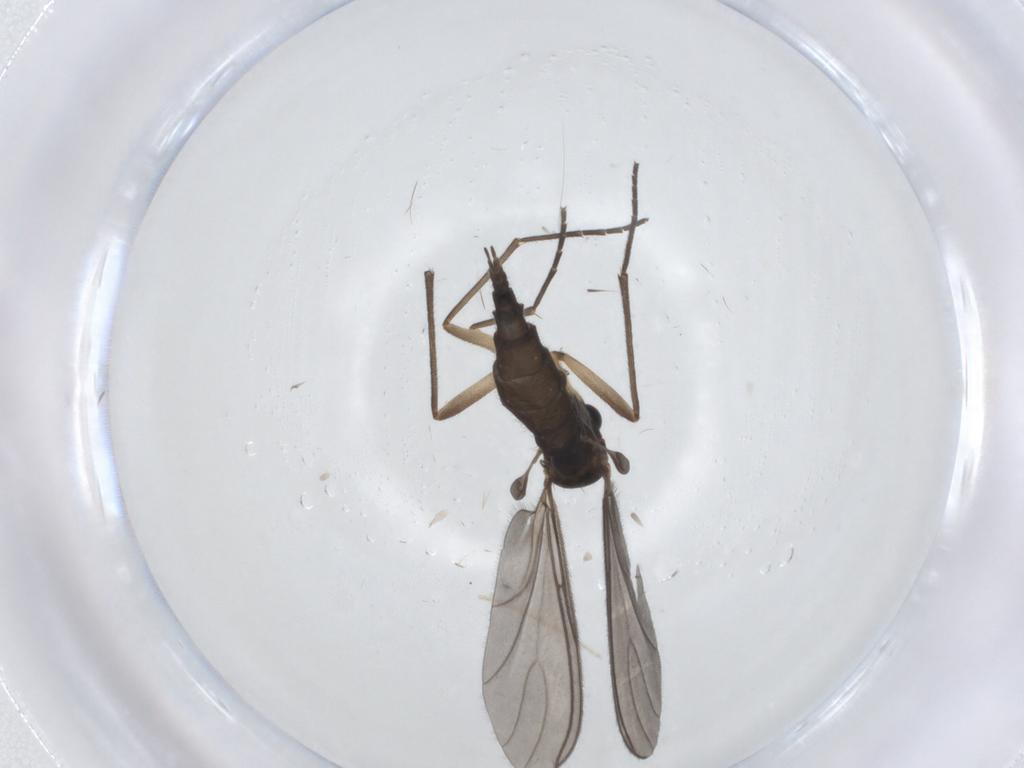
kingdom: Animalia
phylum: Arthropoda
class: Insecta
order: Diptera
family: Sciaridae
